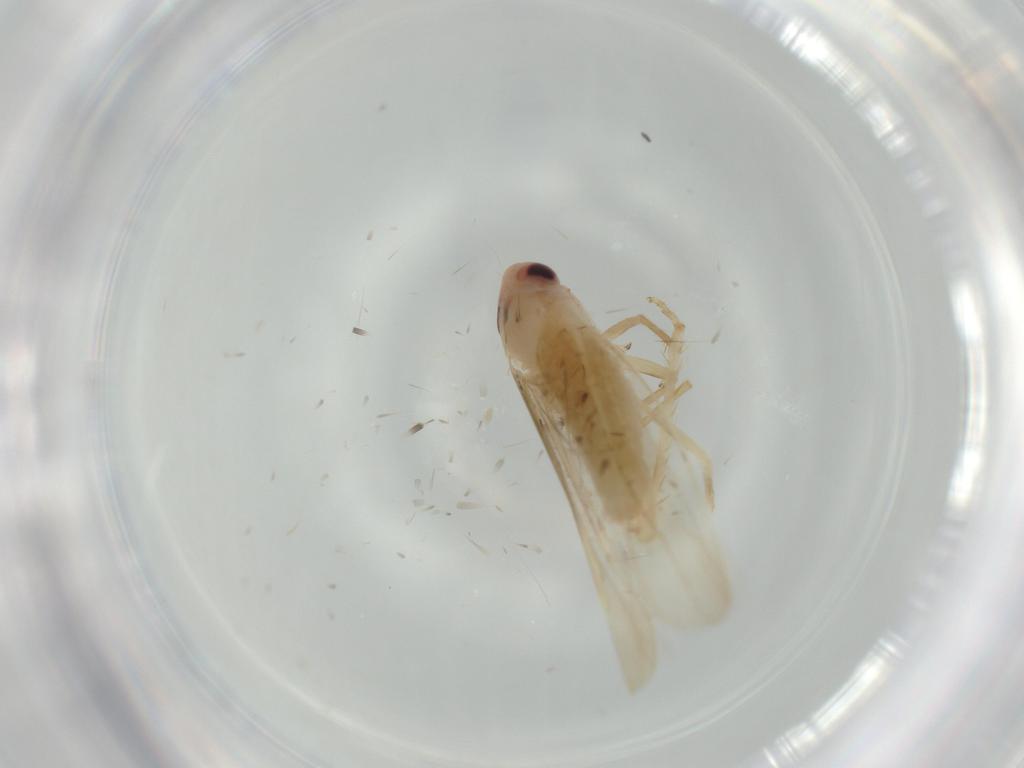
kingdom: Animalia
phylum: Arthropoda
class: Insecta
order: Hemiptera
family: Cicadellidae
